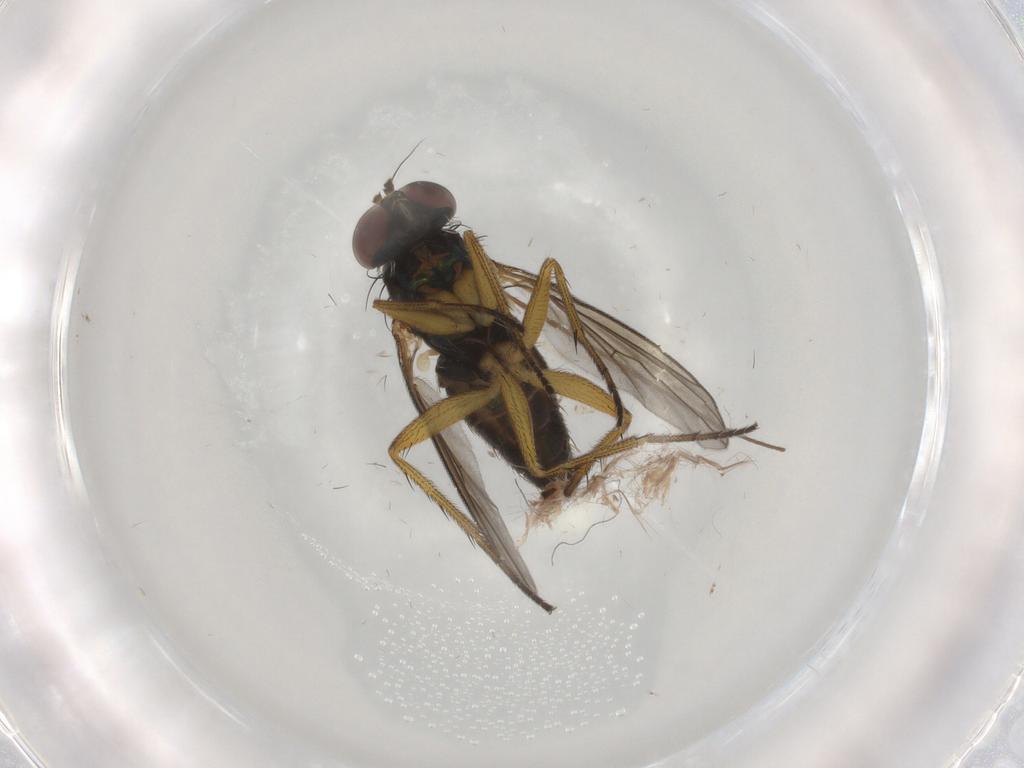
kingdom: Animalia
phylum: Arthropoda
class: Insecta
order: Diptera
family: Dolichopodidae
